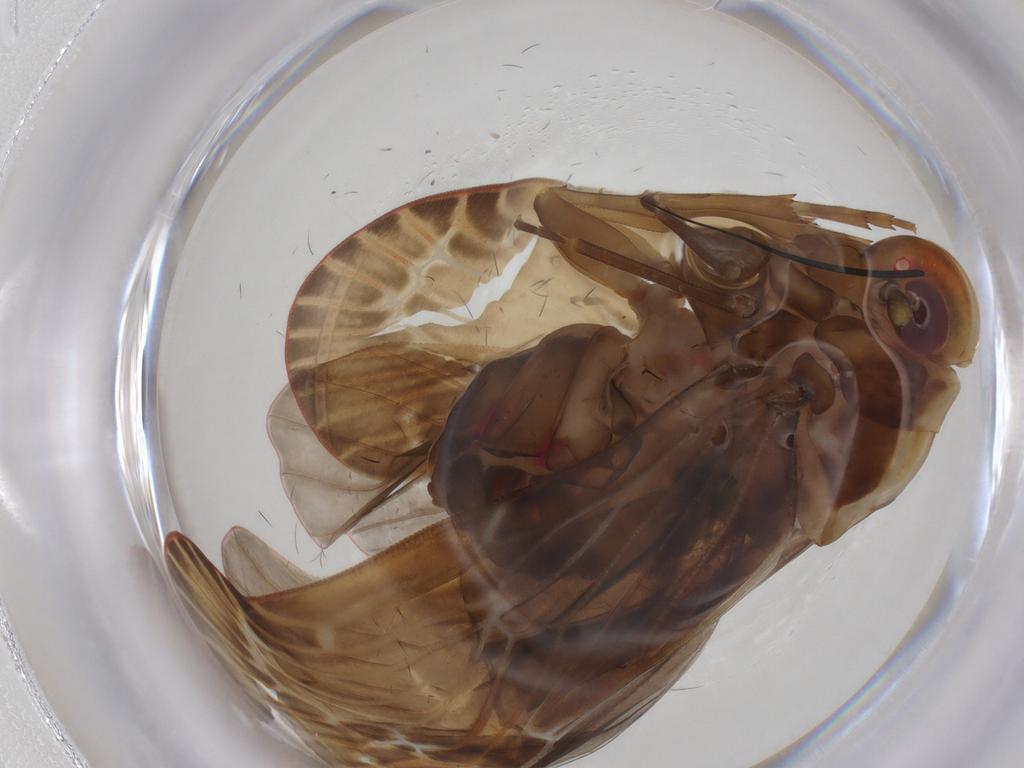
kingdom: Animalia
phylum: Arthropoda
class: Insecta
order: Hemiptera
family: Achilixiidae
